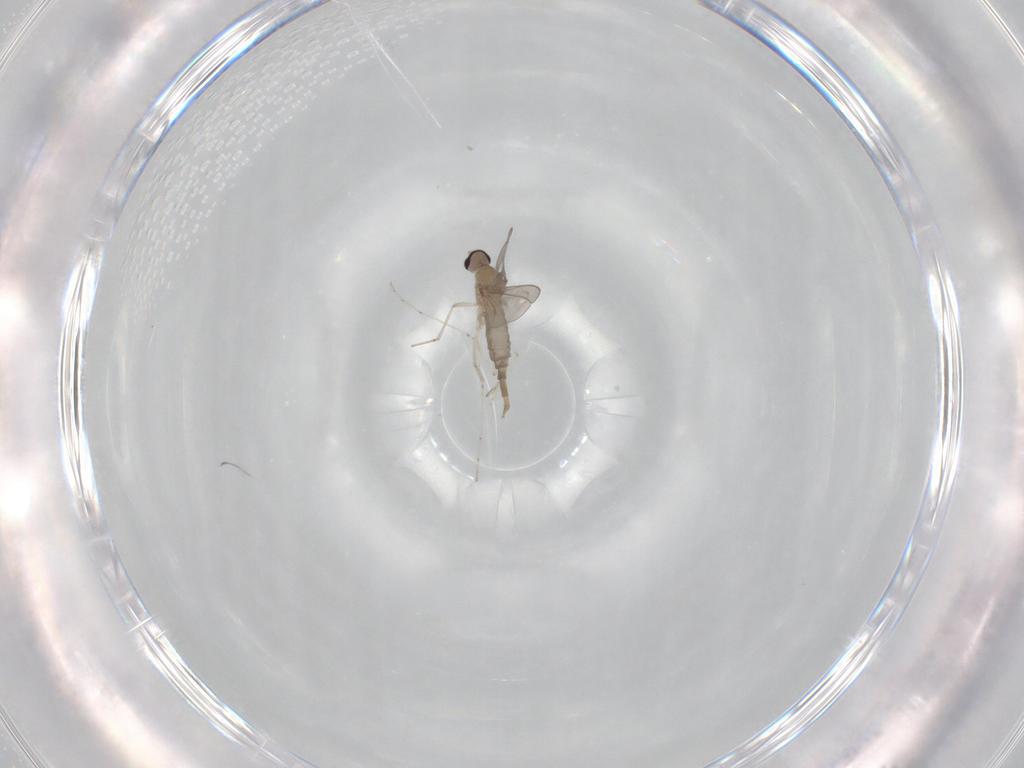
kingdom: Animalia
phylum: Arthropoda
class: Insecta
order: Diptera
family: Cecidomyiidae
